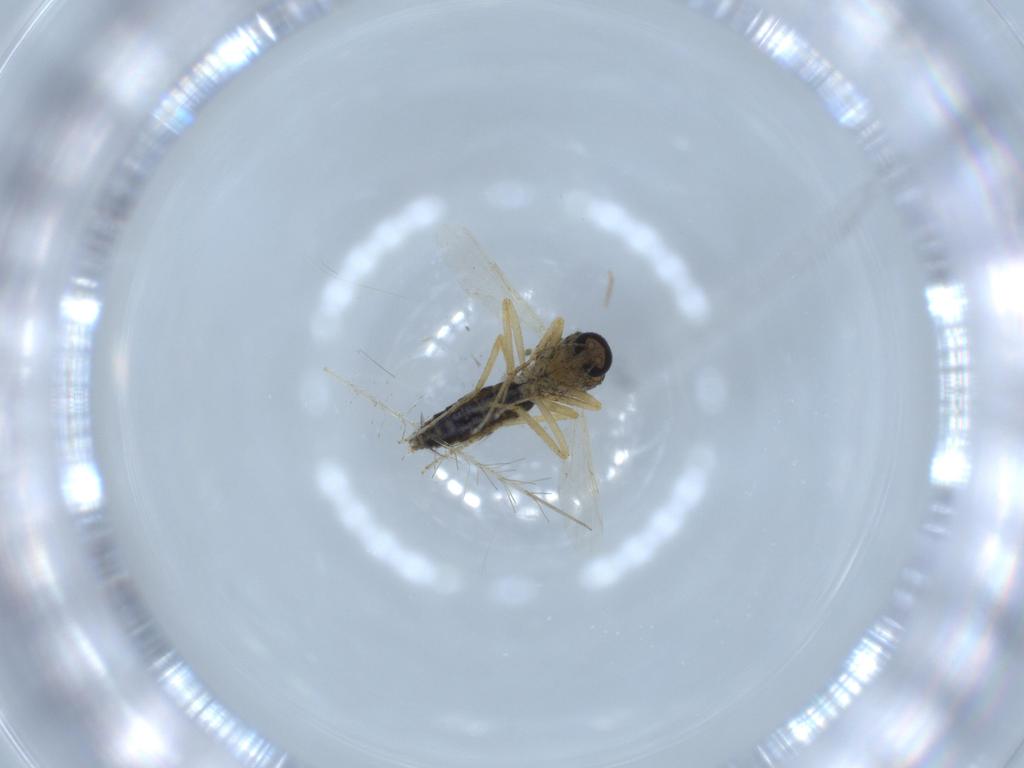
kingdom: Animalia
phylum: Arthropoda
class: Insecta
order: Diptera
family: Ceratopogonidae
